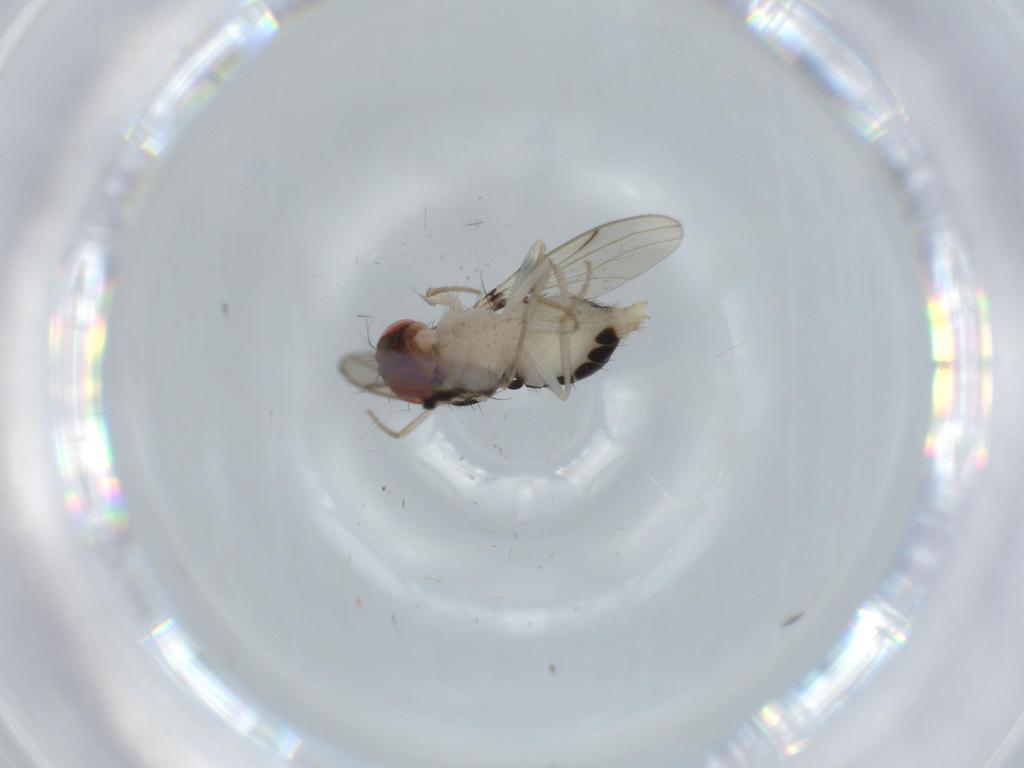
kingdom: Animalia
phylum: Arthropoda
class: Insecta
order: Diptera
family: Drosophilidae
